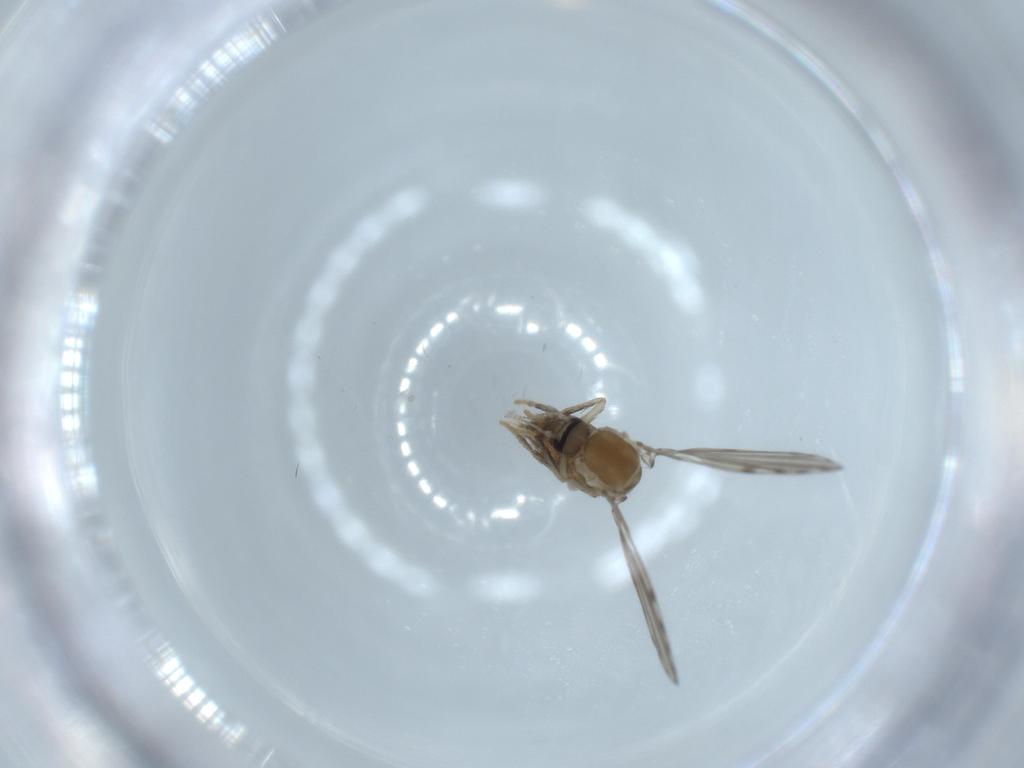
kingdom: Animalia
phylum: Arthropoda
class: Insecta
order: Diptera
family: Psychodidae
